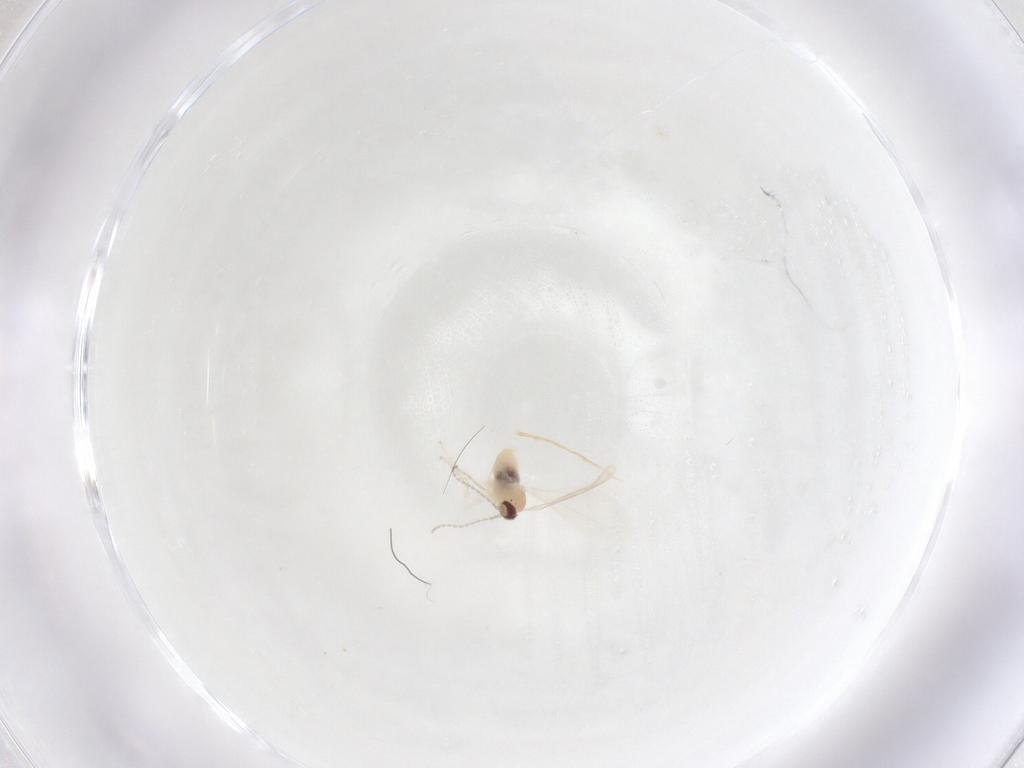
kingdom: Animalia
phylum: Arthropoda
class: Insecta
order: Diptera
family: Cecidomyiidae
